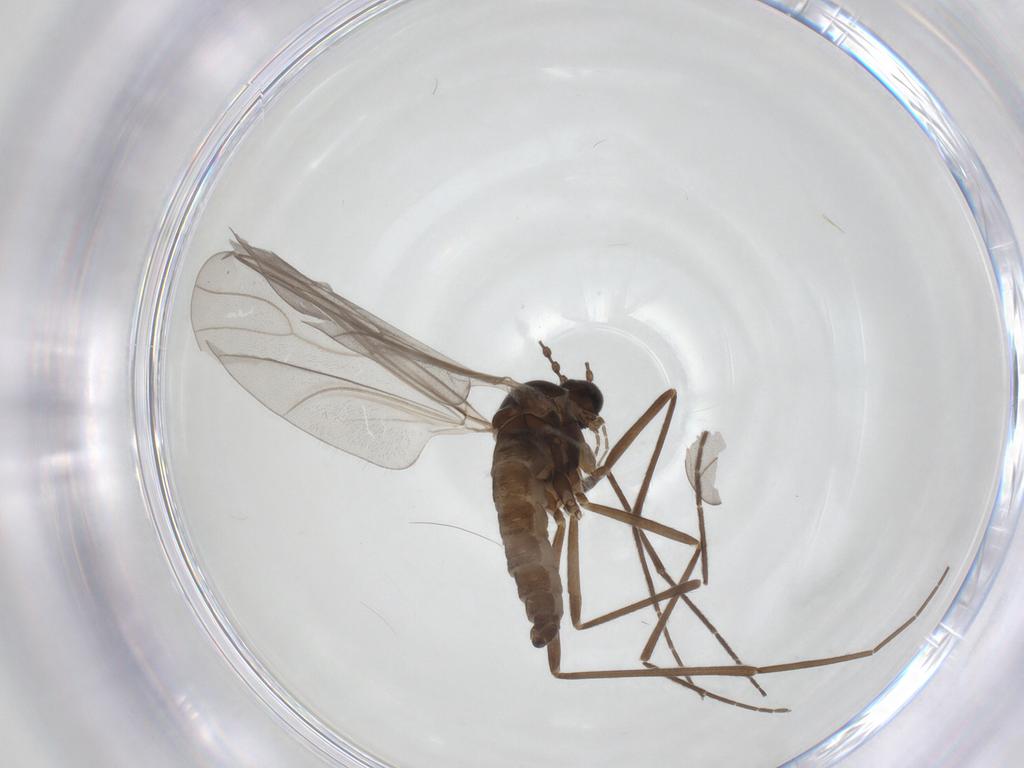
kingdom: Animalia
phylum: Arthropoda
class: Insecta
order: Diptera
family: Cecidomyiidae
